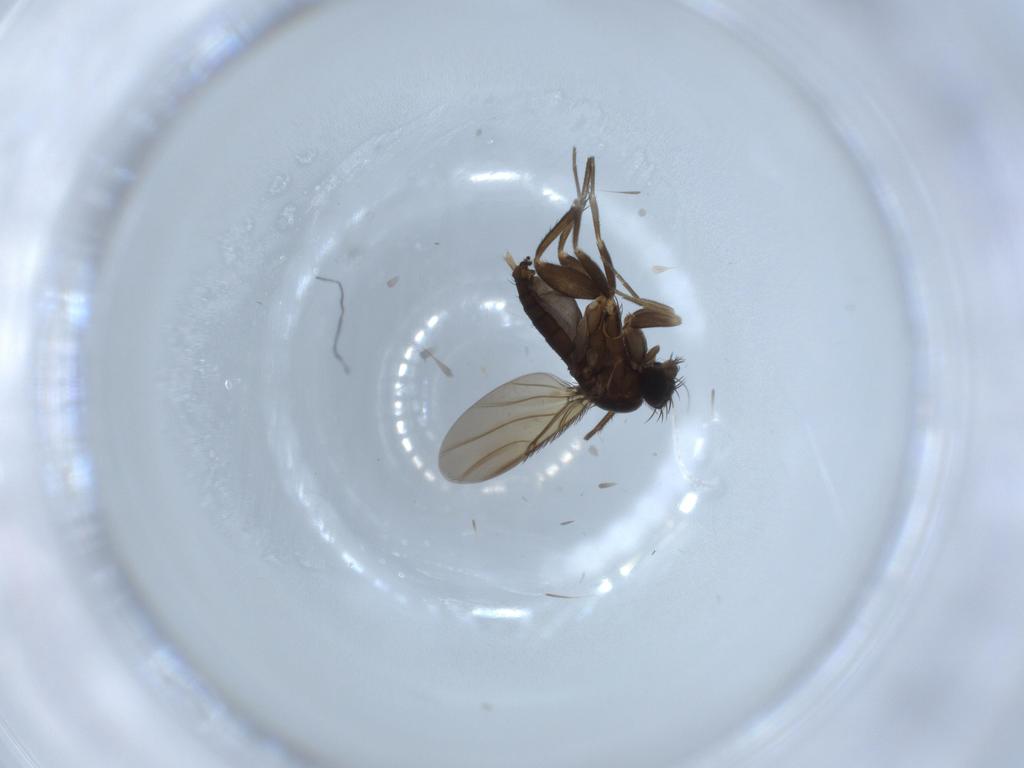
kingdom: Animalia
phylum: Arthropoda
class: Insecta
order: Diptera
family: Phoridae
